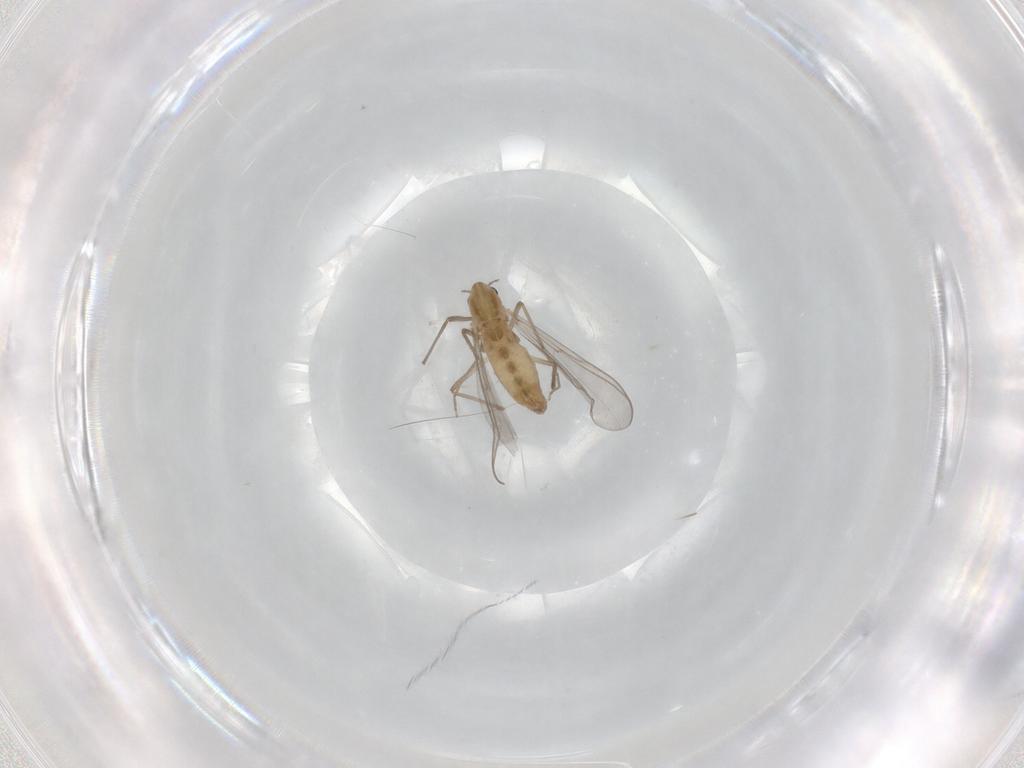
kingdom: Animalia
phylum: Arthropoda
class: Insecta
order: Diptera
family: Chironomidae
